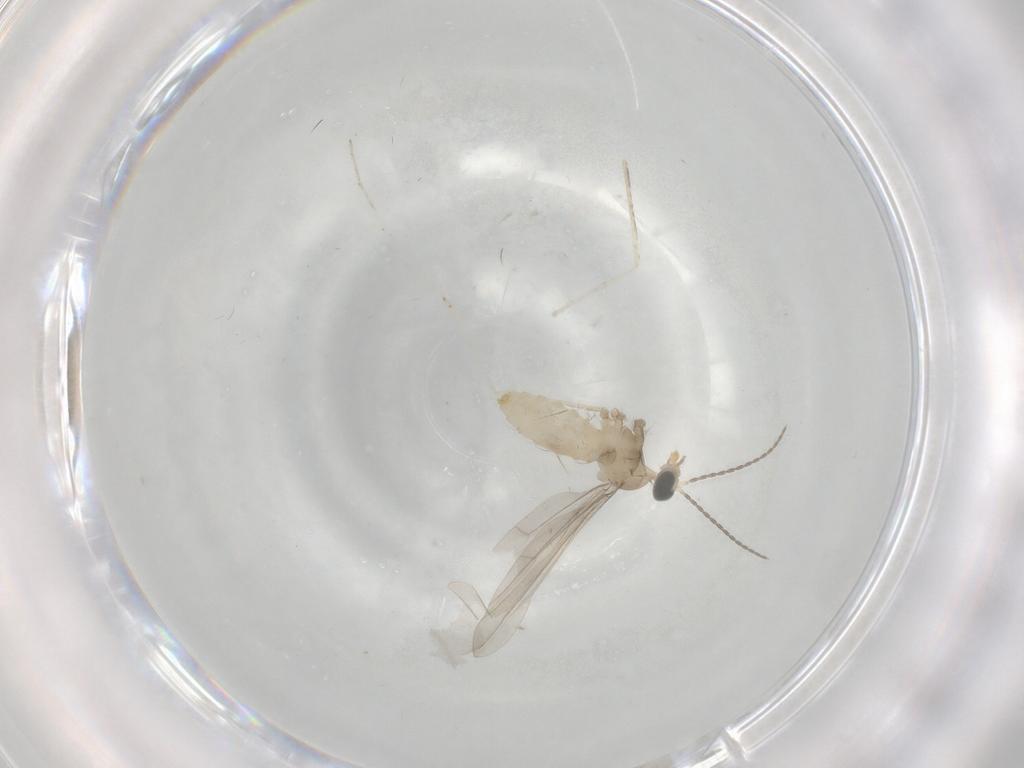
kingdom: Animalia
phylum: Arthropoda
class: Insecta
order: Diptera
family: Cecidomyiidae
